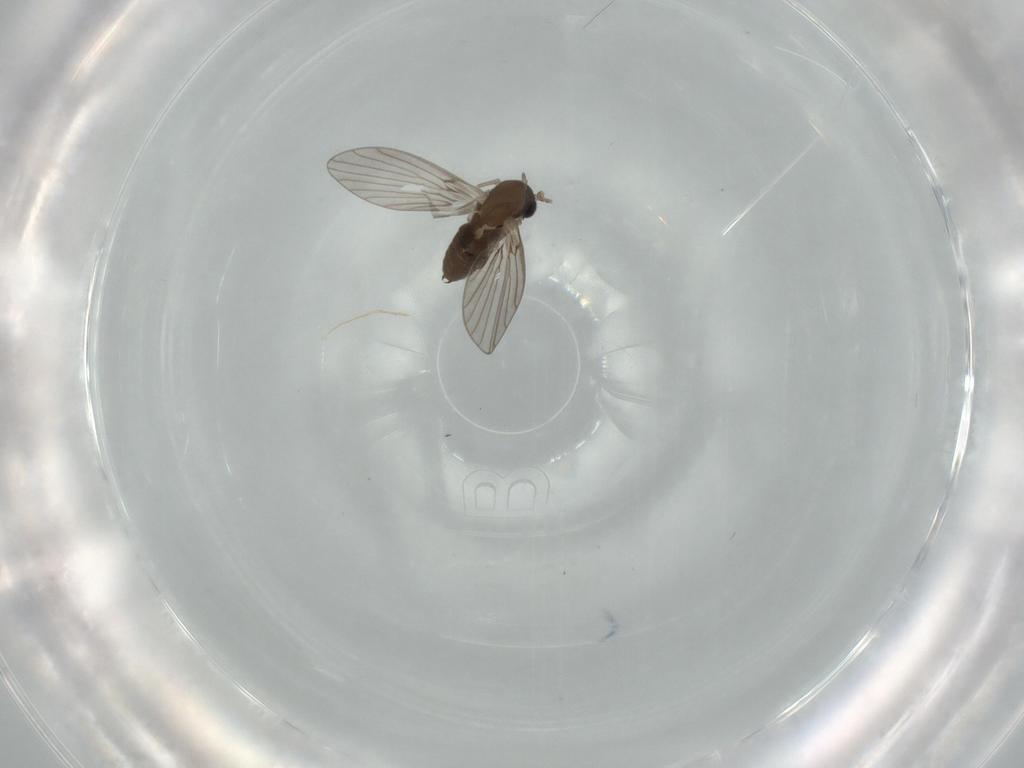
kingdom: Animalia
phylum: Arthropoda
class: Insecta
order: Diptera
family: Psychodidae
